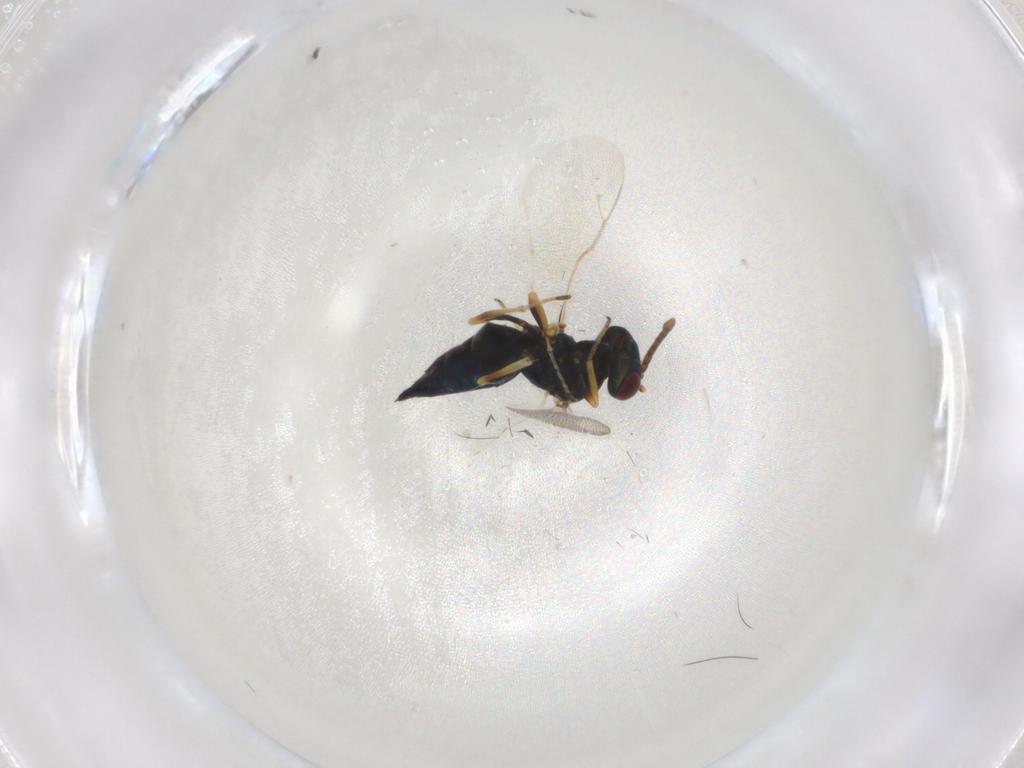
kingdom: Animalia
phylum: Arthropoda
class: Insecta
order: Hymenoptera
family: Pteromalidae
